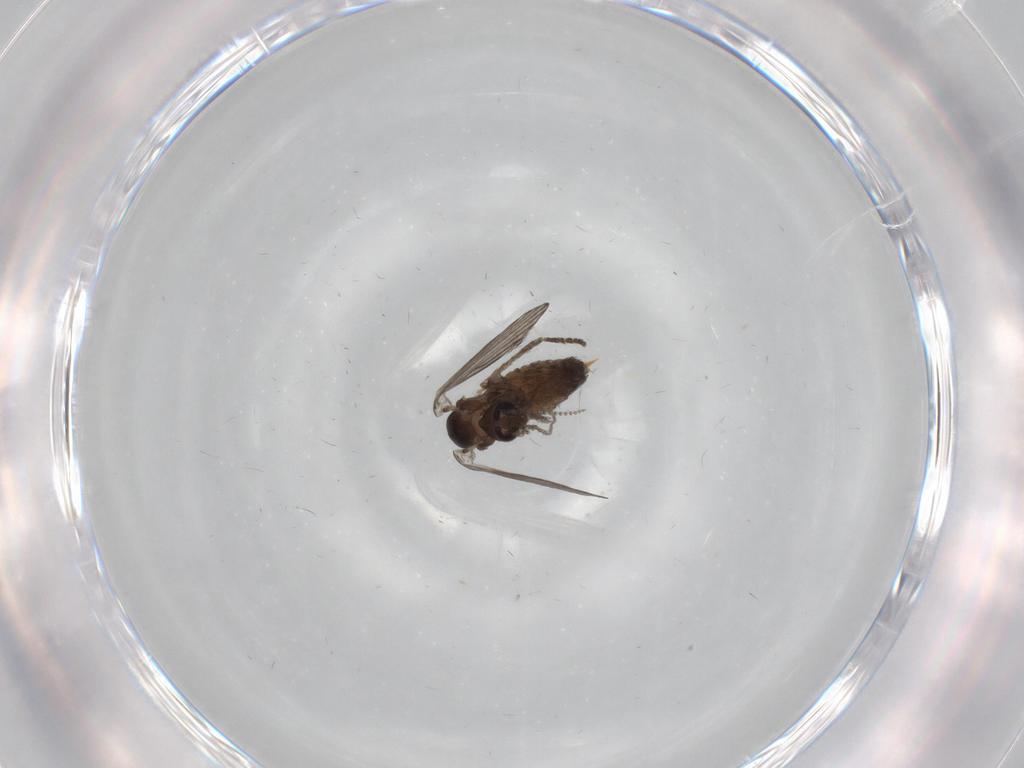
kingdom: Animalia
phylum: Arthropoda
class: Insecta
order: Diptera
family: Psychodidae
